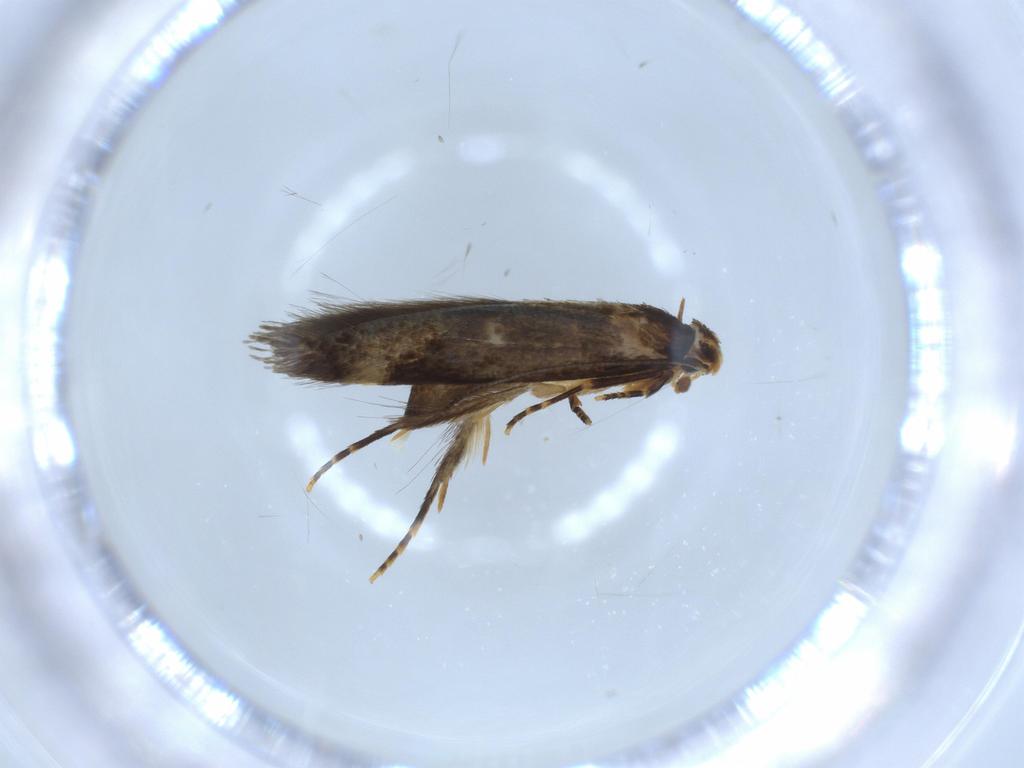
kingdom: Animalia
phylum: Arthropoda
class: Insecta
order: Lepidoptera
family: Tineidae
